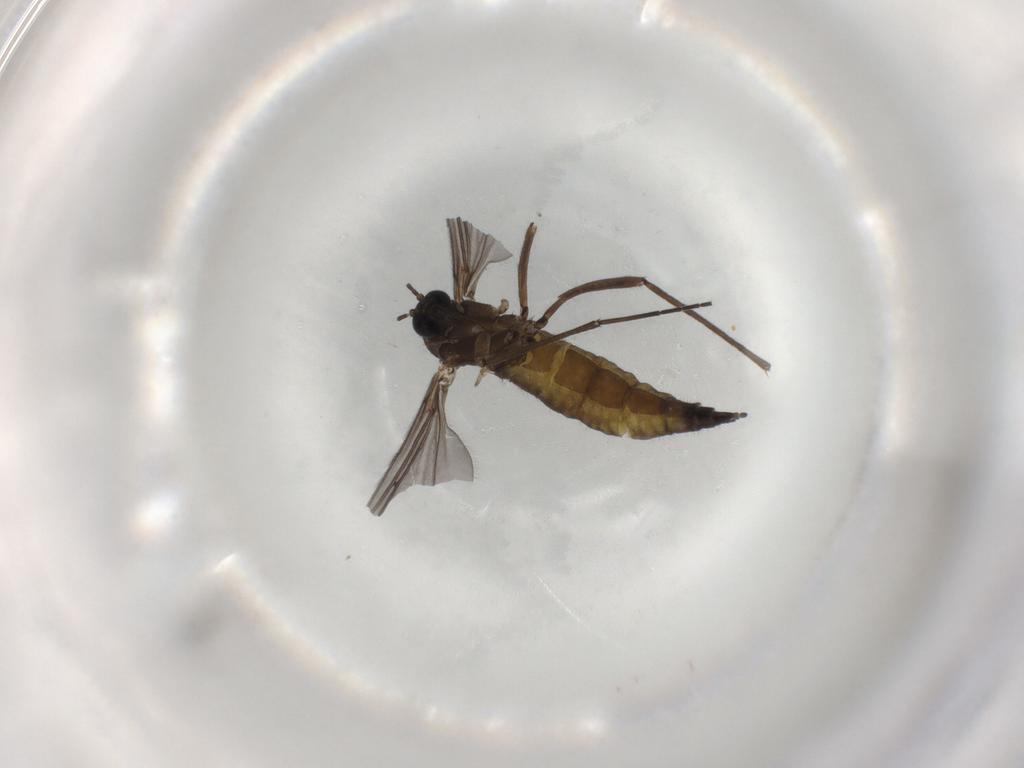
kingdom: Animalia
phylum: Arthropoda
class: Insecta
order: Diptera
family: Sciaridae
